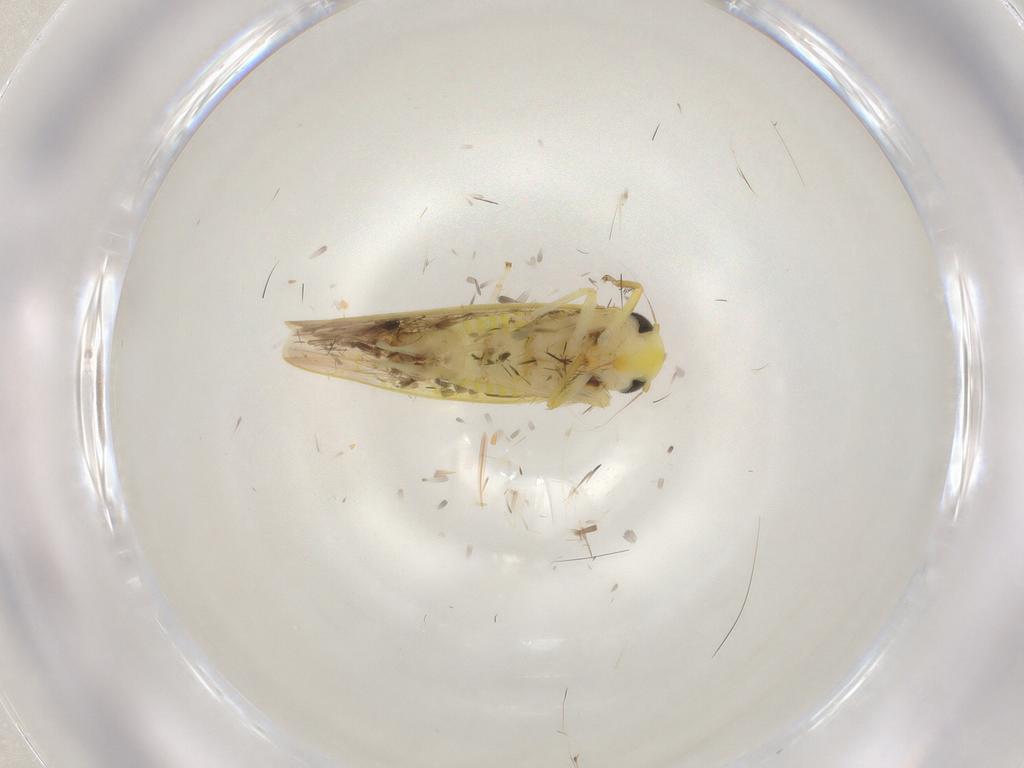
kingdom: Animalia
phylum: Arthropoda
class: Insecta
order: Hemiptera
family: Cicadellidae
